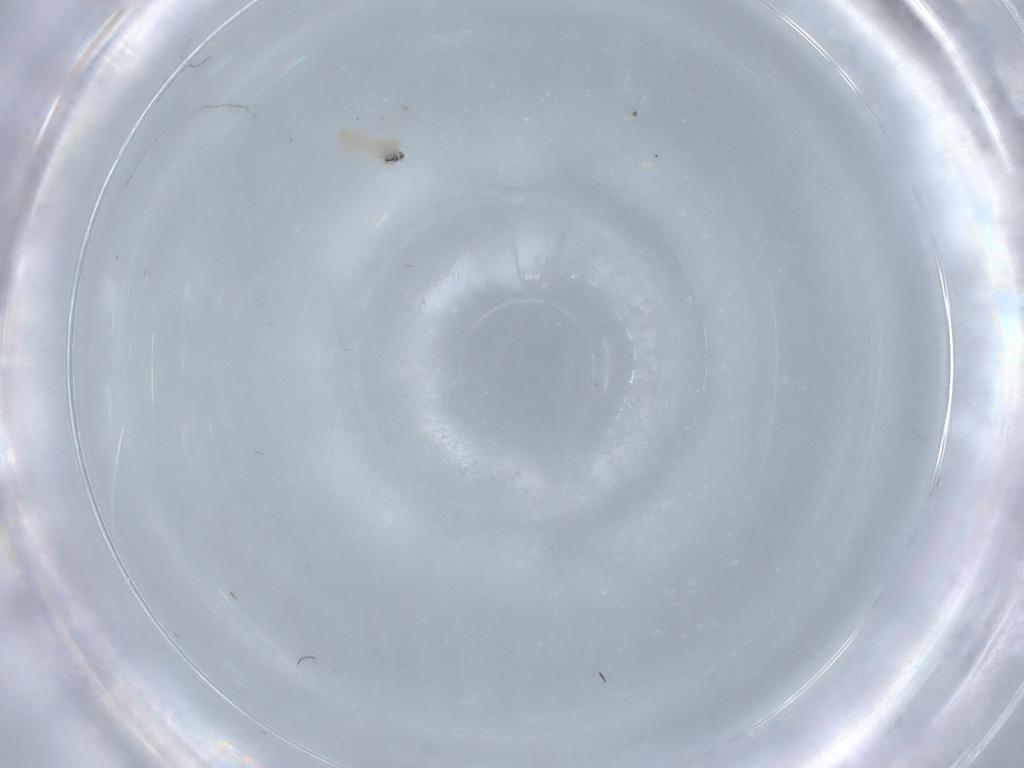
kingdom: Animalia
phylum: Arthropoda
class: Insecta
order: Diptera
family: Cecidomyiidae
